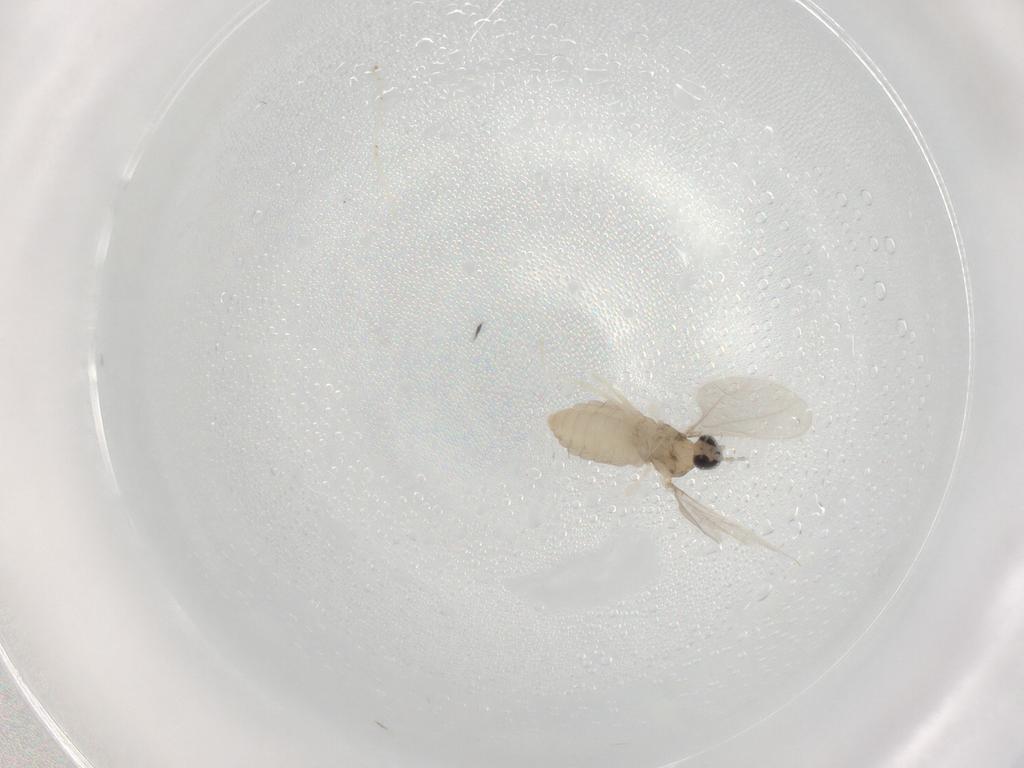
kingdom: Animalia
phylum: Arthropoda
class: Insecta
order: Diptera
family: Cecidomyiidae
